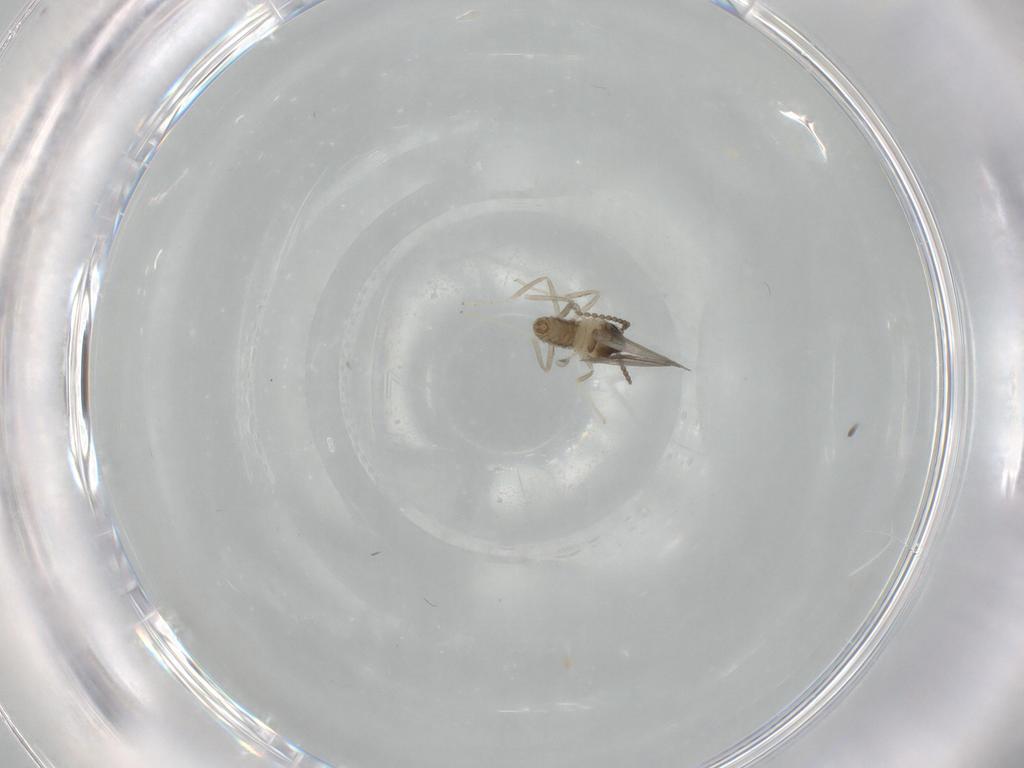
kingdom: Animalia
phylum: Arthropoda
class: Insecta
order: Diptera
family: Cecidomyiidae
